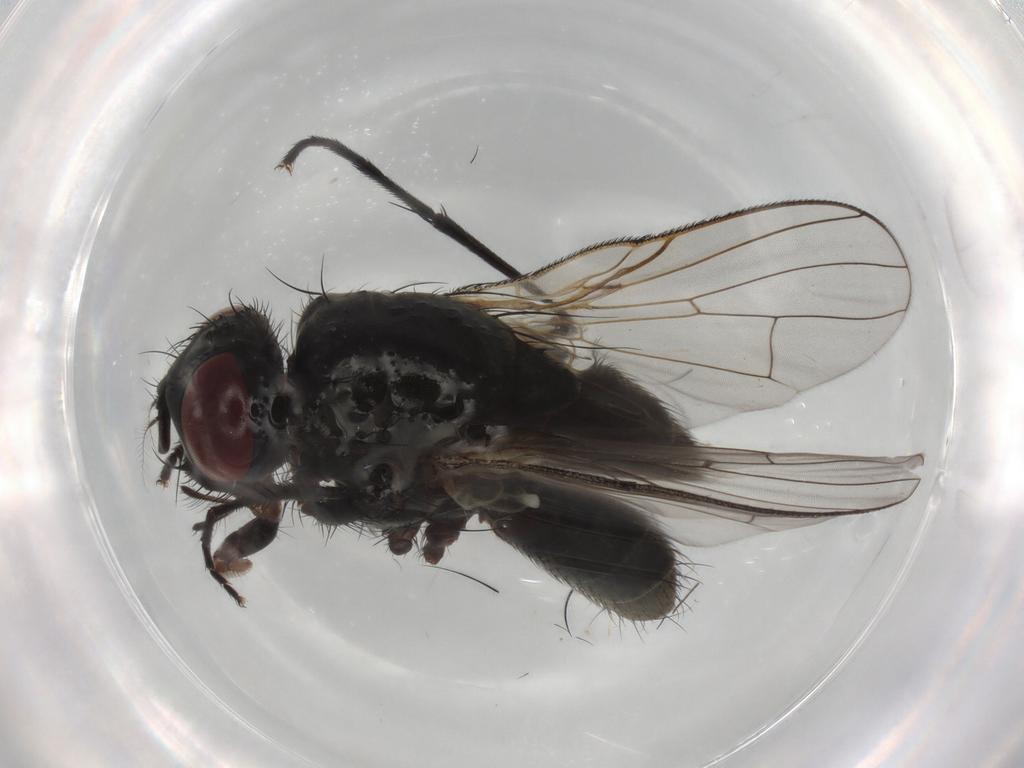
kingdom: Animalia
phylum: Arthropoda
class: Insecta
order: Diptera
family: Muscidae
